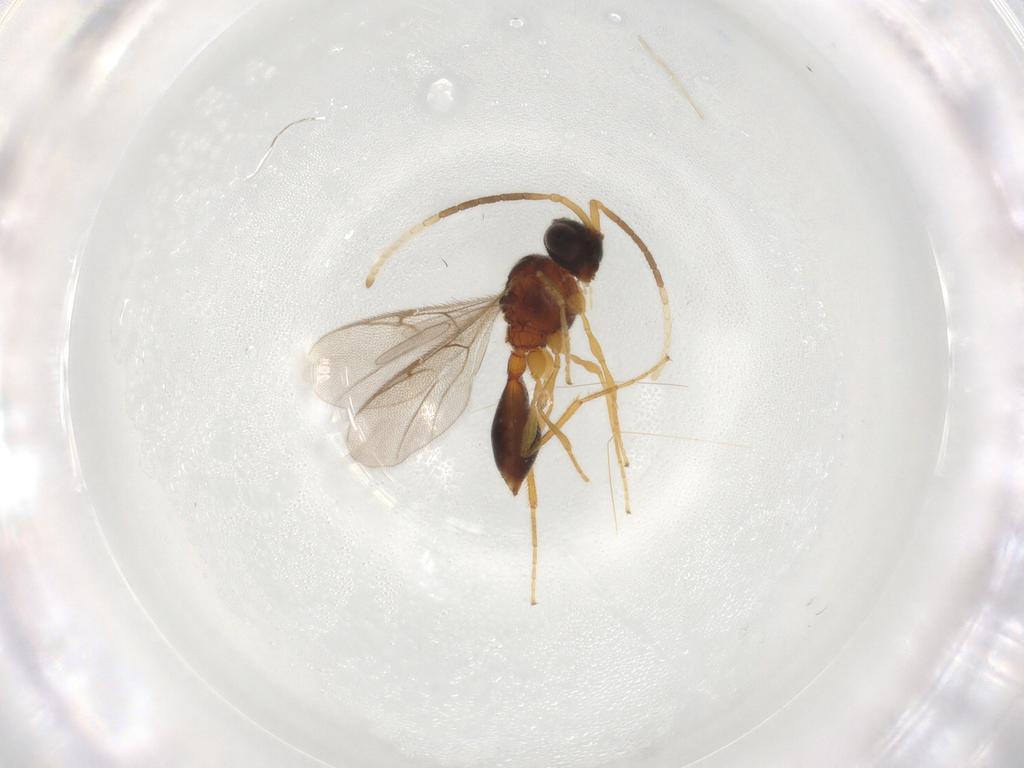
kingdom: Animalia
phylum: Arthropoda
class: Insecta
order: Hymenoptera
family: Diapriidae
